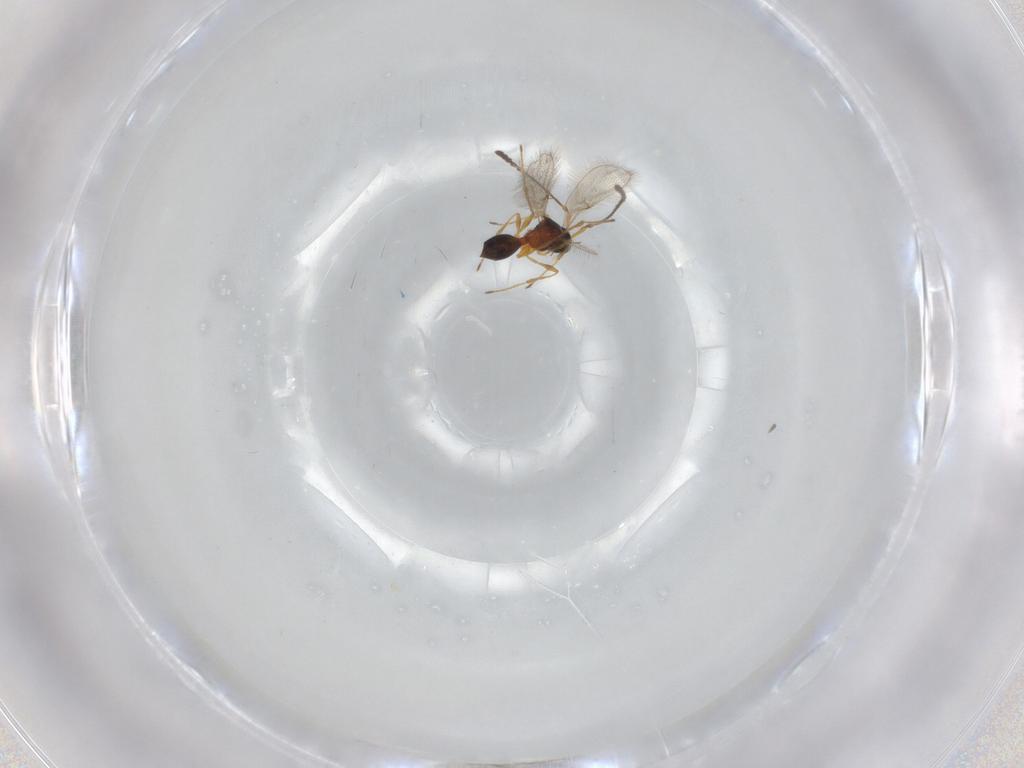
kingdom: Animalia
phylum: Arthropoda
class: Insecta
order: Hymenoptera
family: Diapriidae
